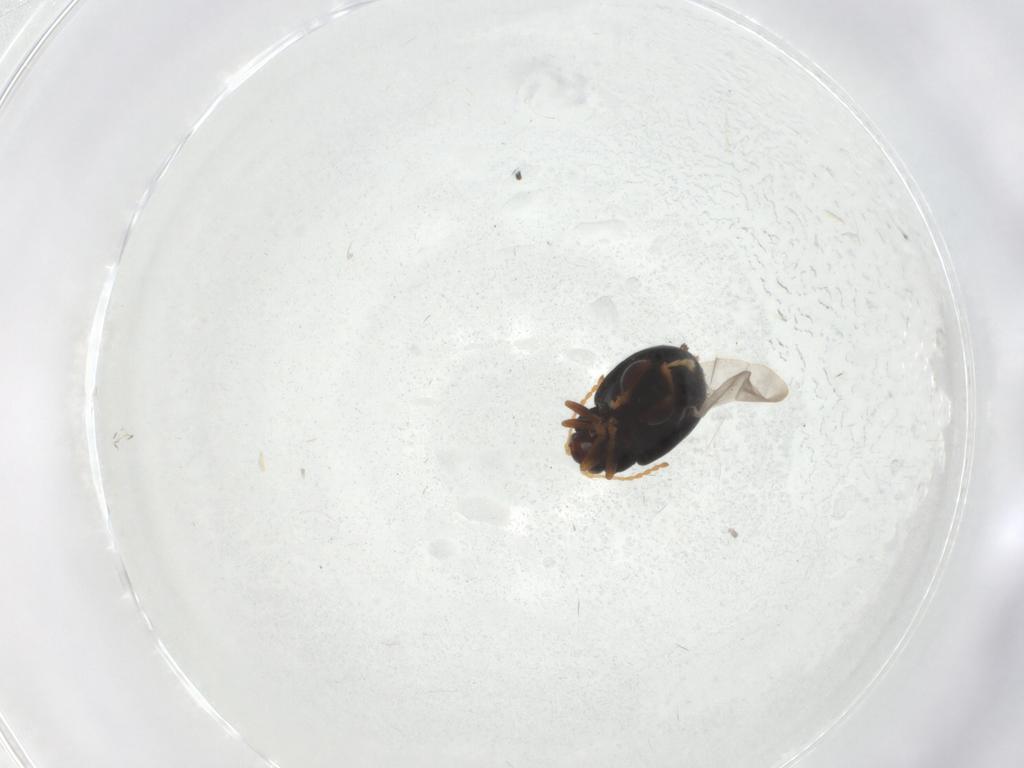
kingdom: Animalia
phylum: Arthropoda
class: Insecta
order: Coleoptera
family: Chrysomelidae
